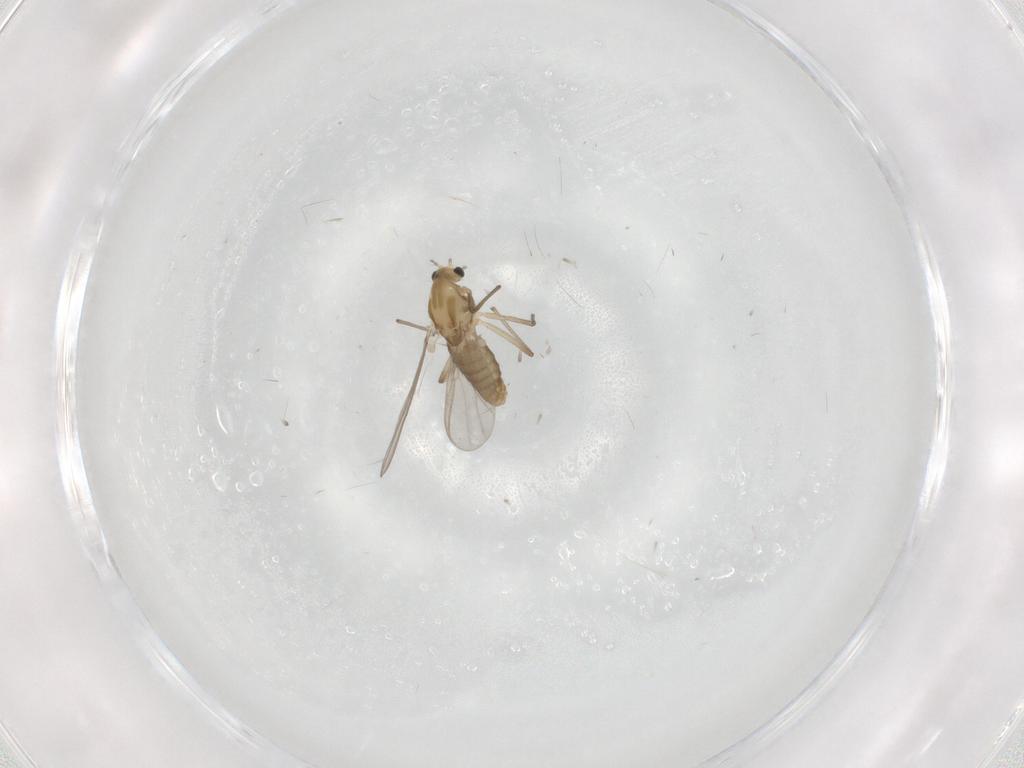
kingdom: Animalia
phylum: Arthropoda
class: Insecta
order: Diptera
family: Chironomidae
